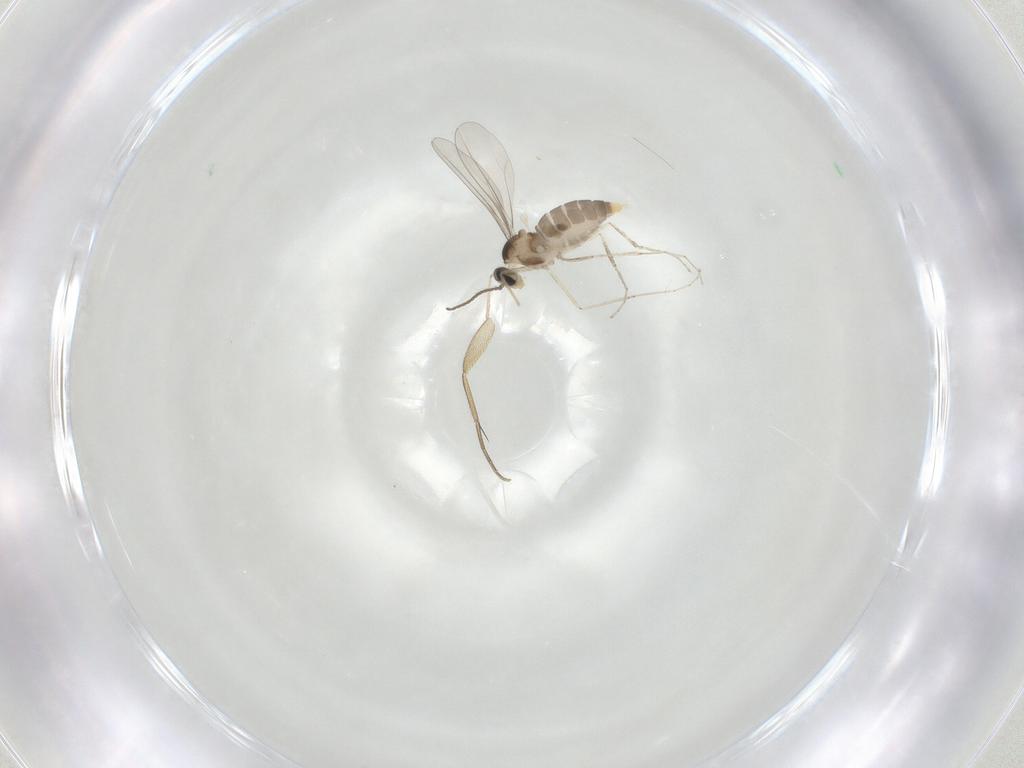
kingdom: Animalia
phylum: Arthropoda
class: Insecta
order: Diptera
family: Phoridae
